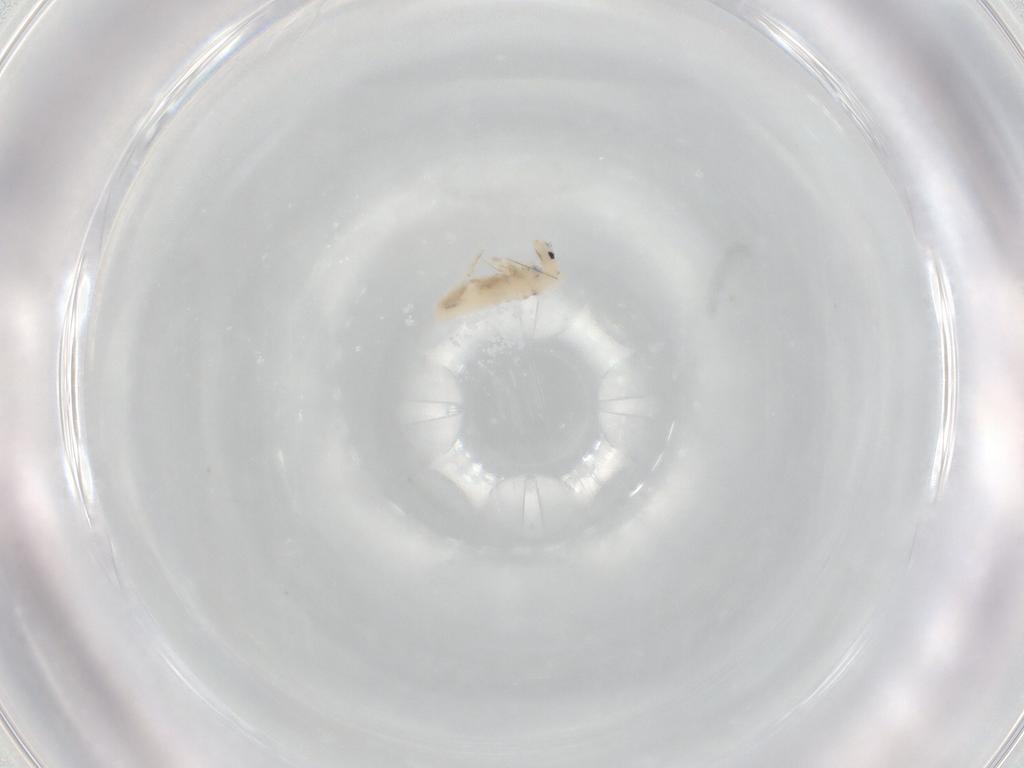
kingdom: Animalia
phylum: Arthropoda
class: Collembola
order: Entomobryomorpha
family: Entomobryidae
